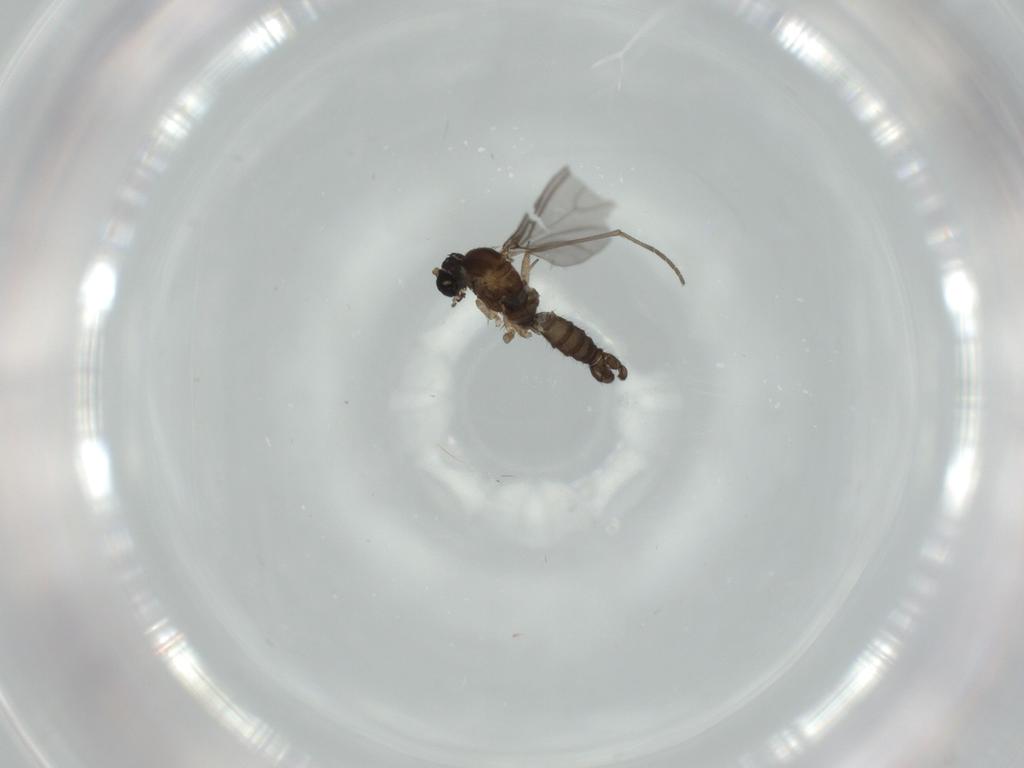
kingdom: Animalia
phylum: Arthropoda
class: Insecta
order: Diptera
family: Sciaridae
